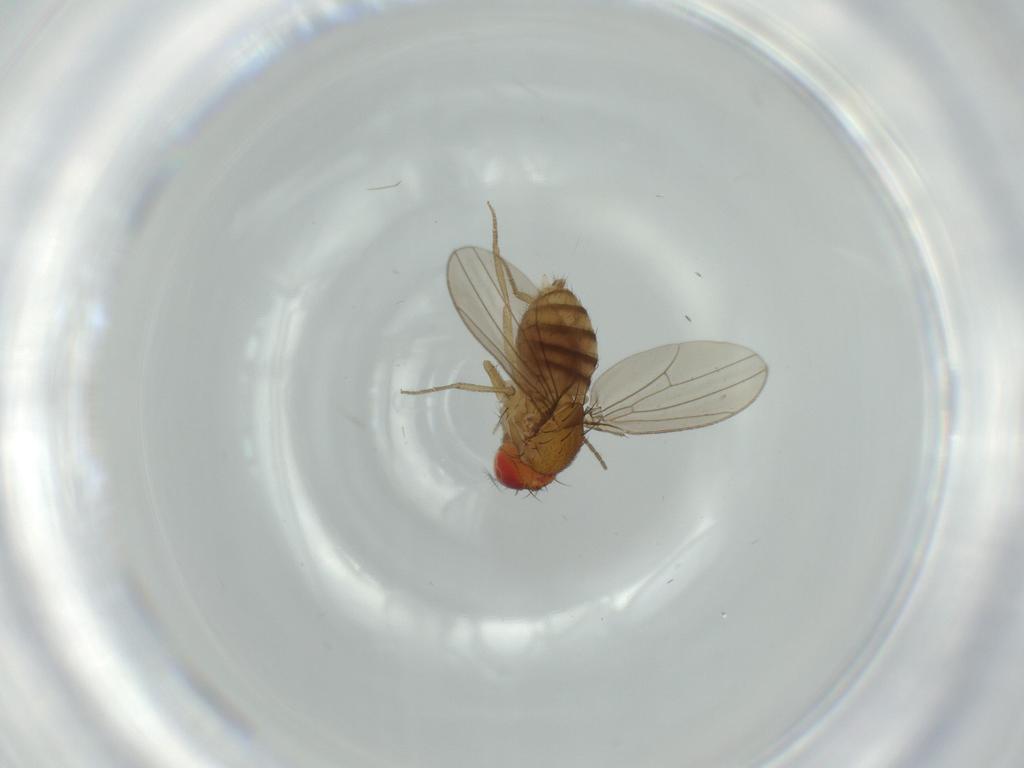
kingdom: Animalia
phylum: Arthropoda
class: Insecta
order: Diptera
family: Drosophilidae
